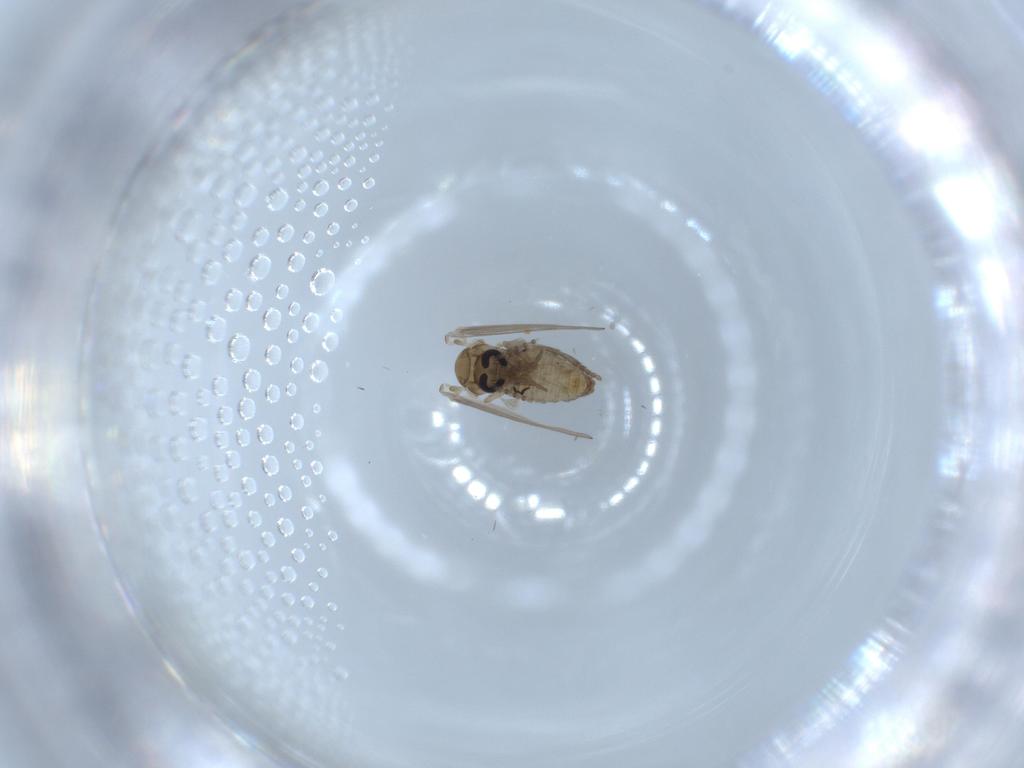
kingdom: Animalia
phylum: Arthropoda
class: Insecta
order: Diptera
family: Psychodidae
